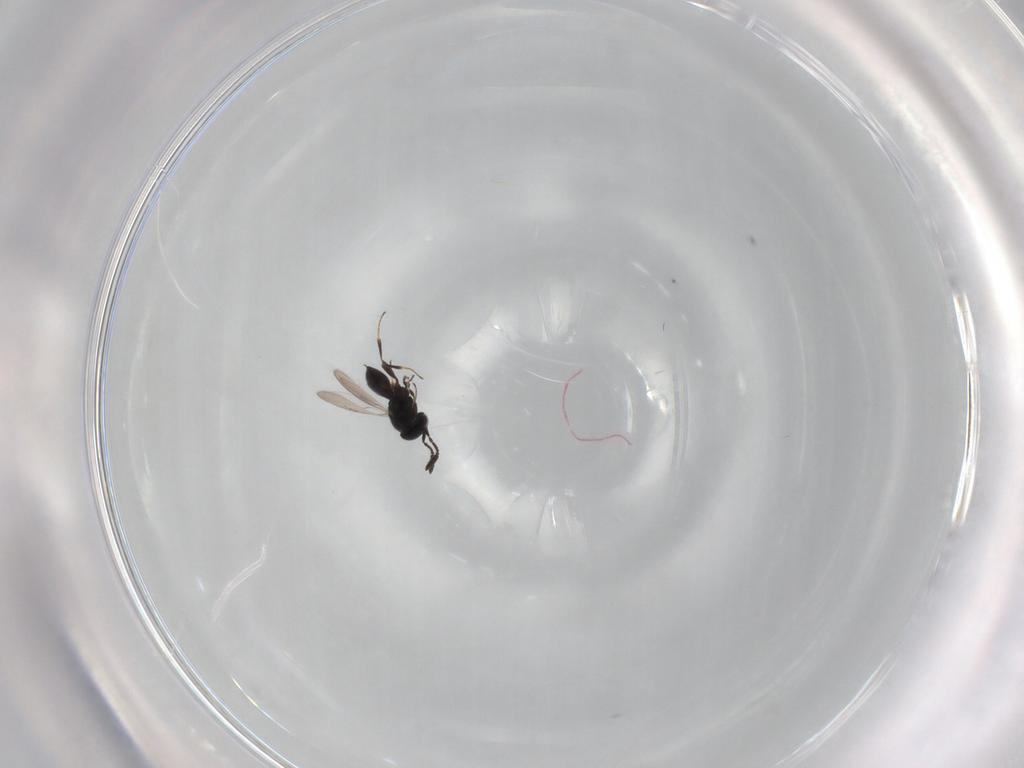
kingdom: Animalia
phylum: Arthropoda
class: Insecta
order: Hymenoptera
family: Scelionidae
